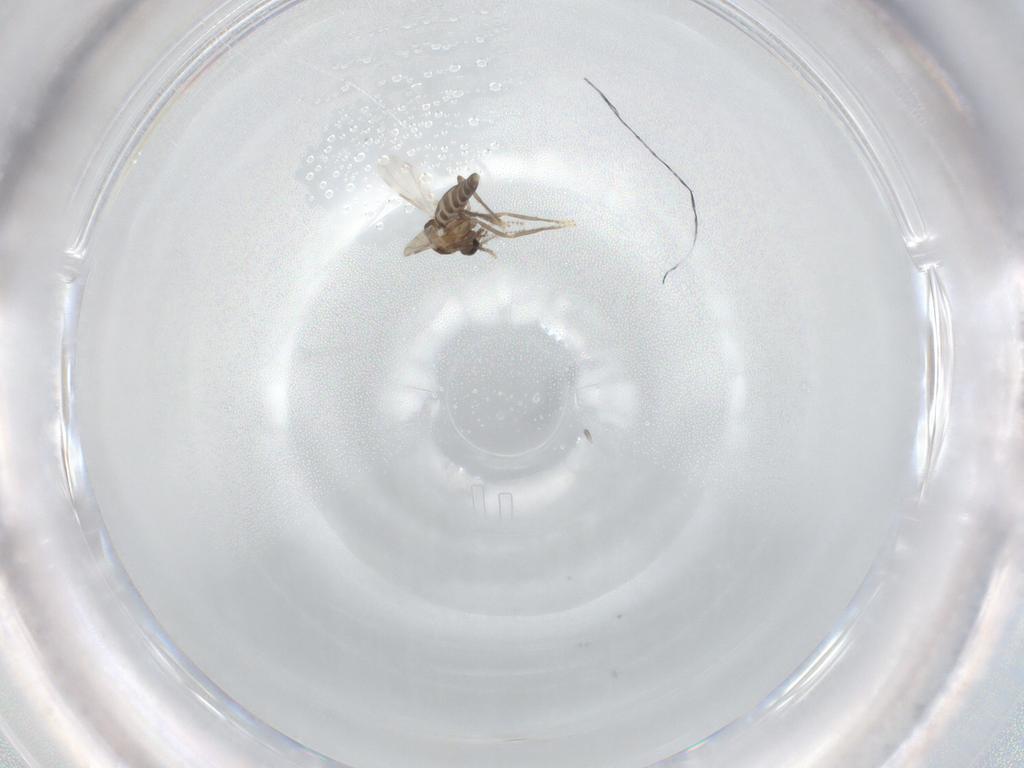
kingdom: Animalia
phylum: Arthropoda
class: Insecta
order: Diptera
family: Ceratopogonidae
